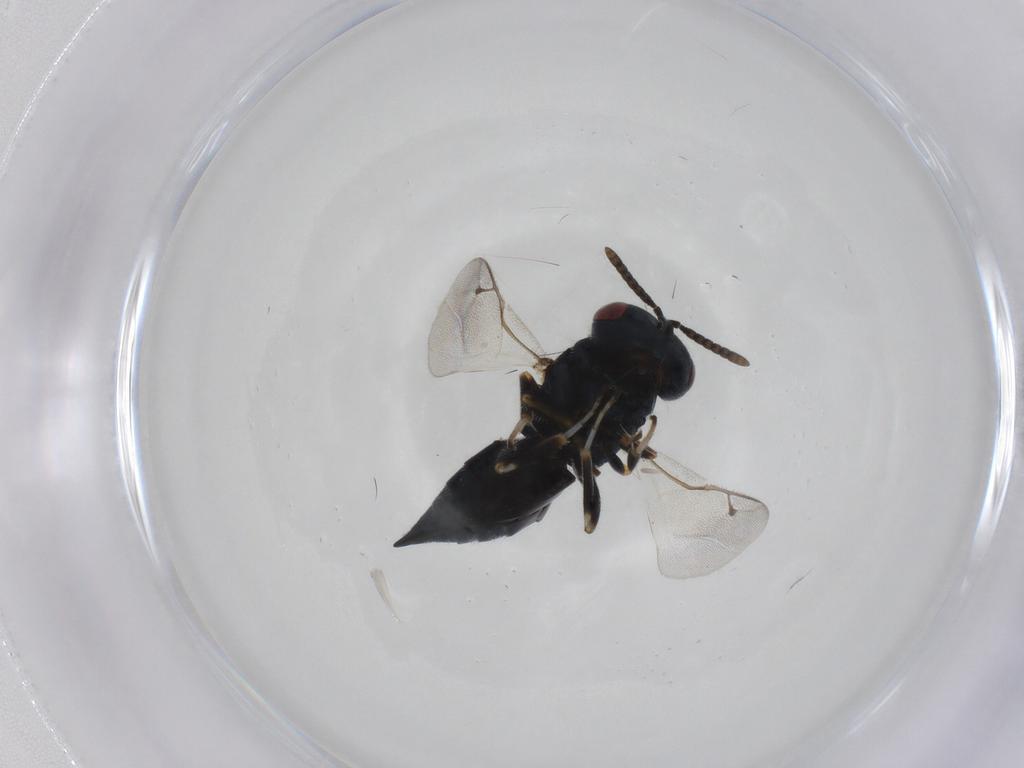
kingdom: Animalia
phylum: Arthropoda
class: Insecta
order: Hymenoptera
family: Pteromalidae
